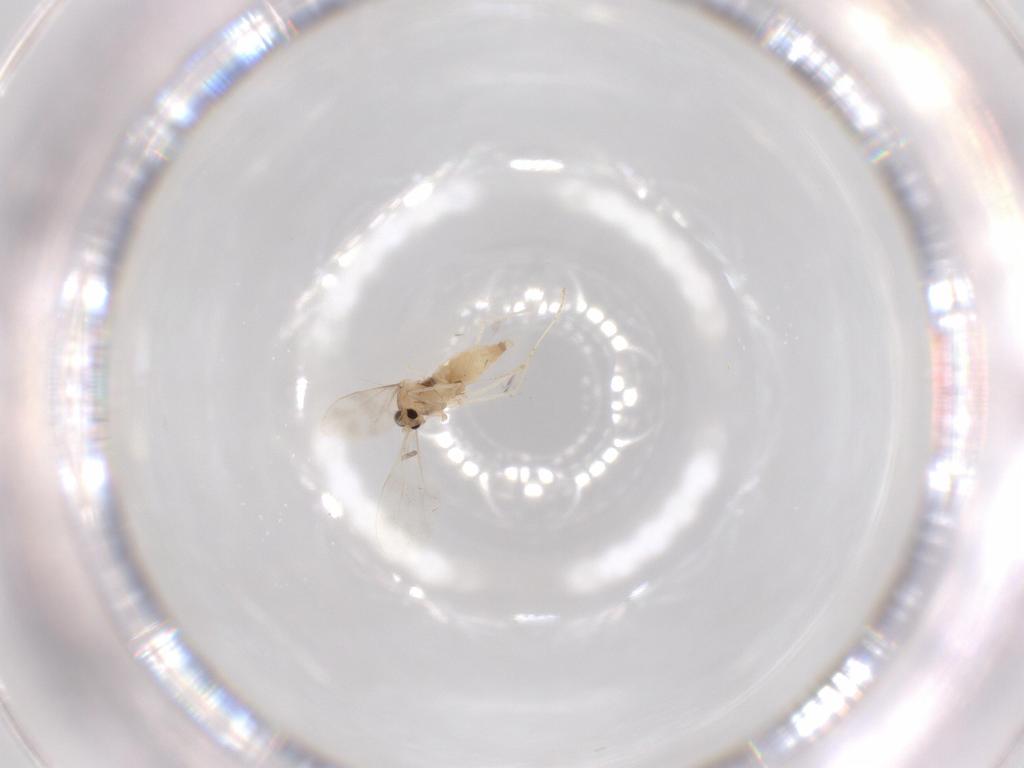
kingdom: Animalia
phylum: Arthropoda
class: Insecta
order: Diptera
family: Cecidomyiidae
